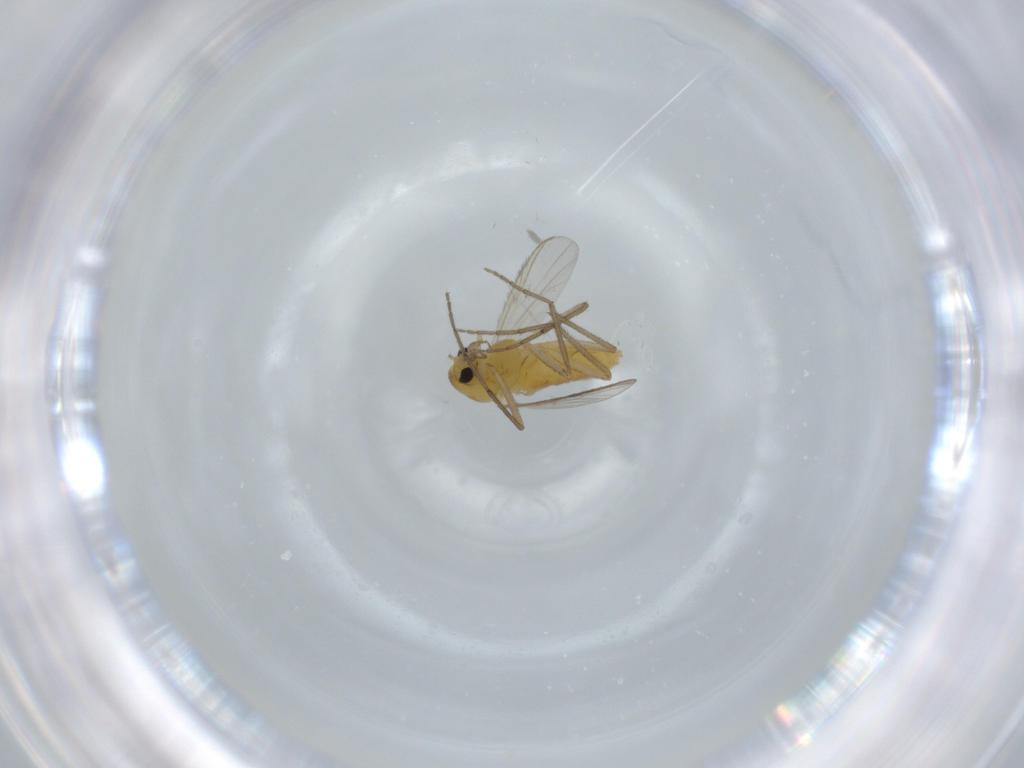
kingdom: Animalia
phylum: Arthropoda
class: Insecta
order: Diptera
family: Chironomidae
